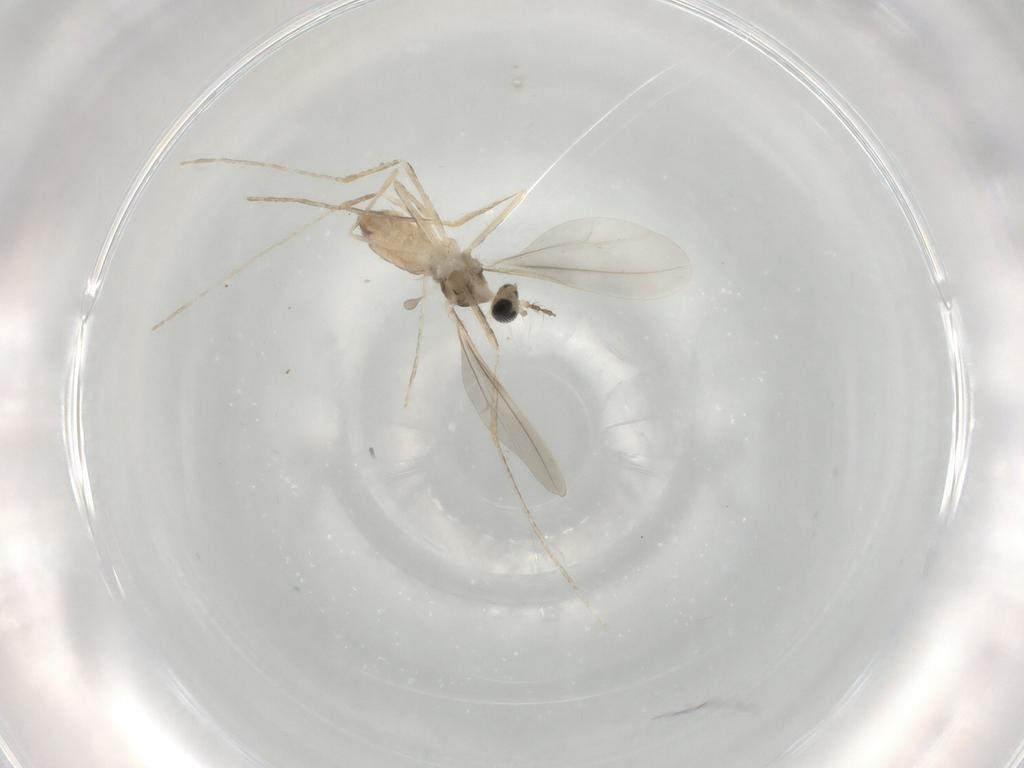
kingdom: Animalia
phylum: Arthropoda
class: Insecta
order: Diptera
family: Cecidomyiidae
